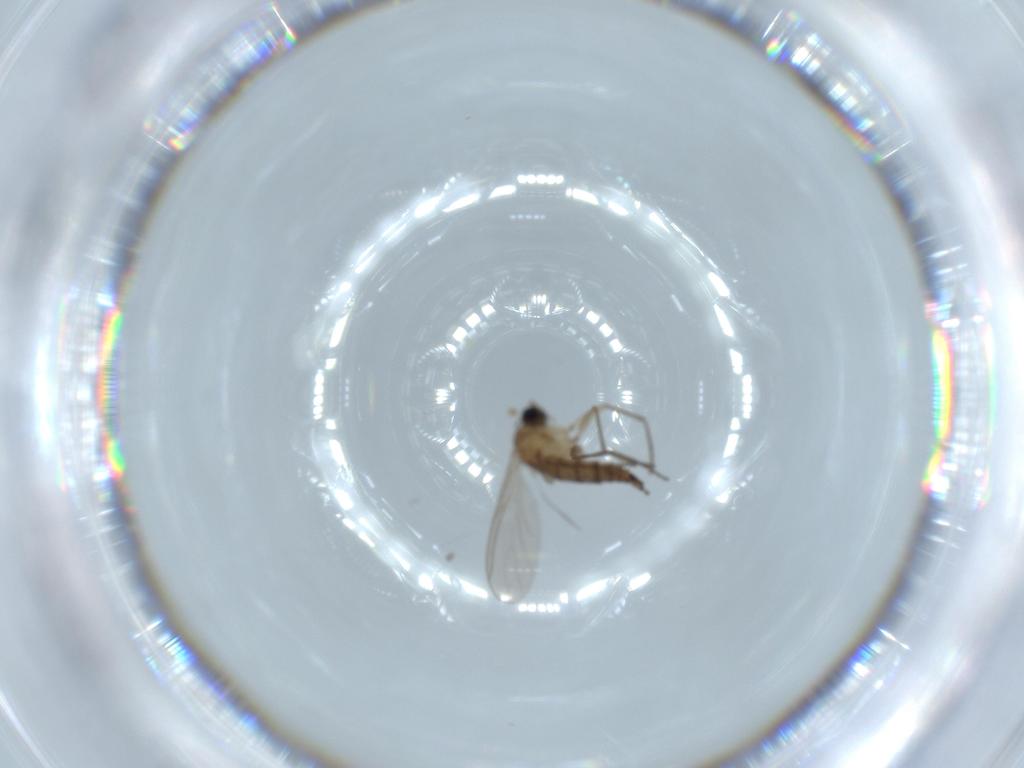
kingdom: Animalia
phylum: Arthropoda
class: Insecta
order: Diptera
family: Sciaridae
